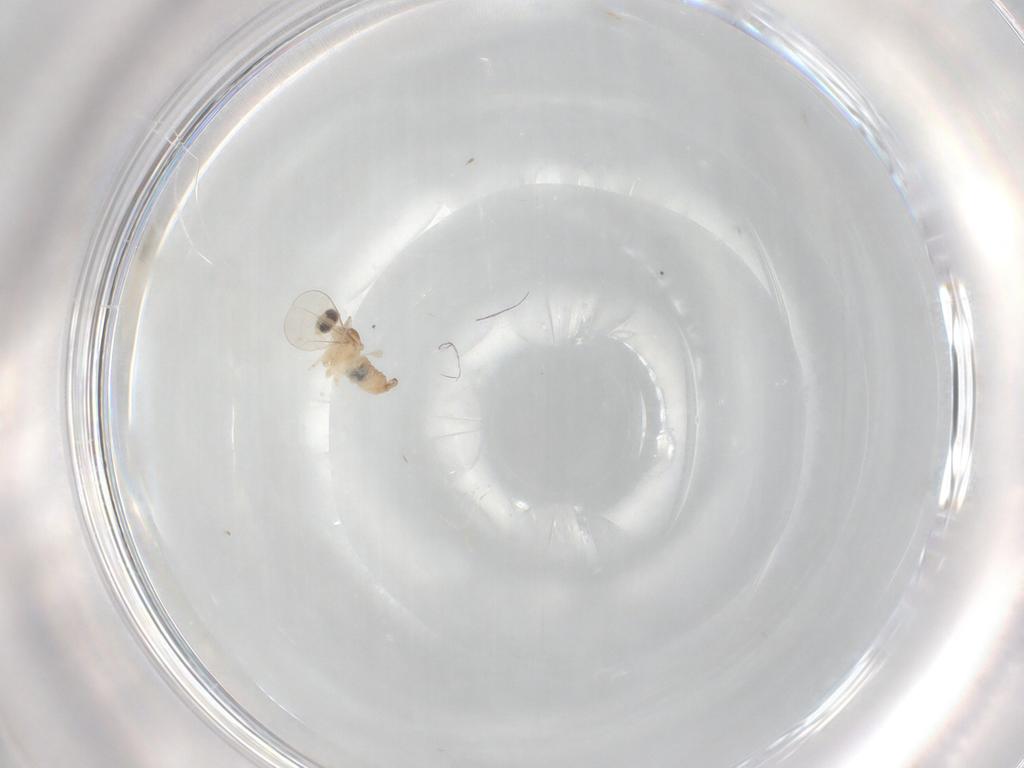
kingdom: Animalia
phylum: Arthropoda
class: Insecta
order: Diptera
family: Cecidomyiidae
